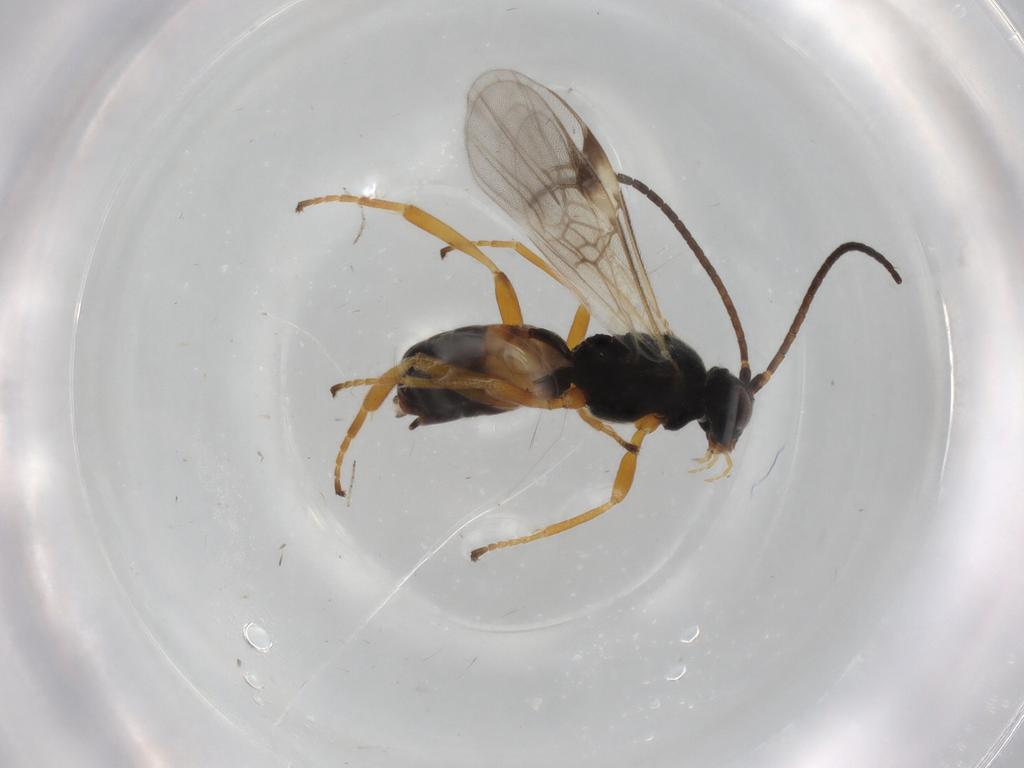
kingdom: Animalia
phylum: Arthropoda
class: Insecta
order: Hymenoptera
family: Braconidae
